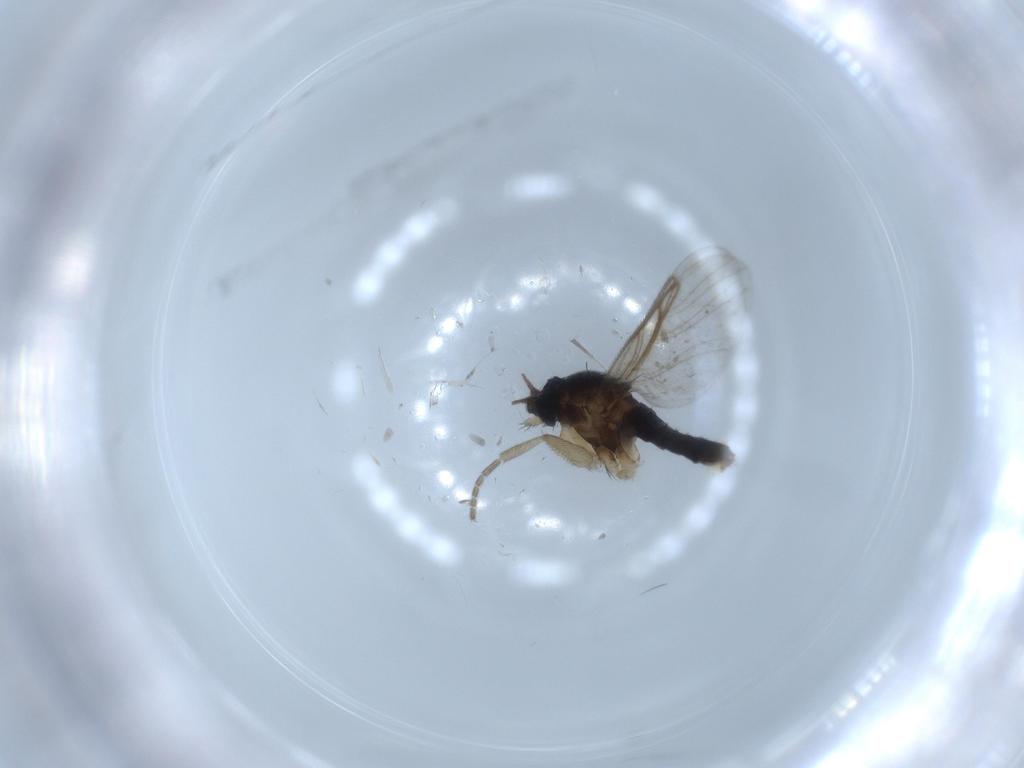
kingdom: Animalia
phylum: Arthropoda
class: Insecta
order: Diptera
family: Phoridae
